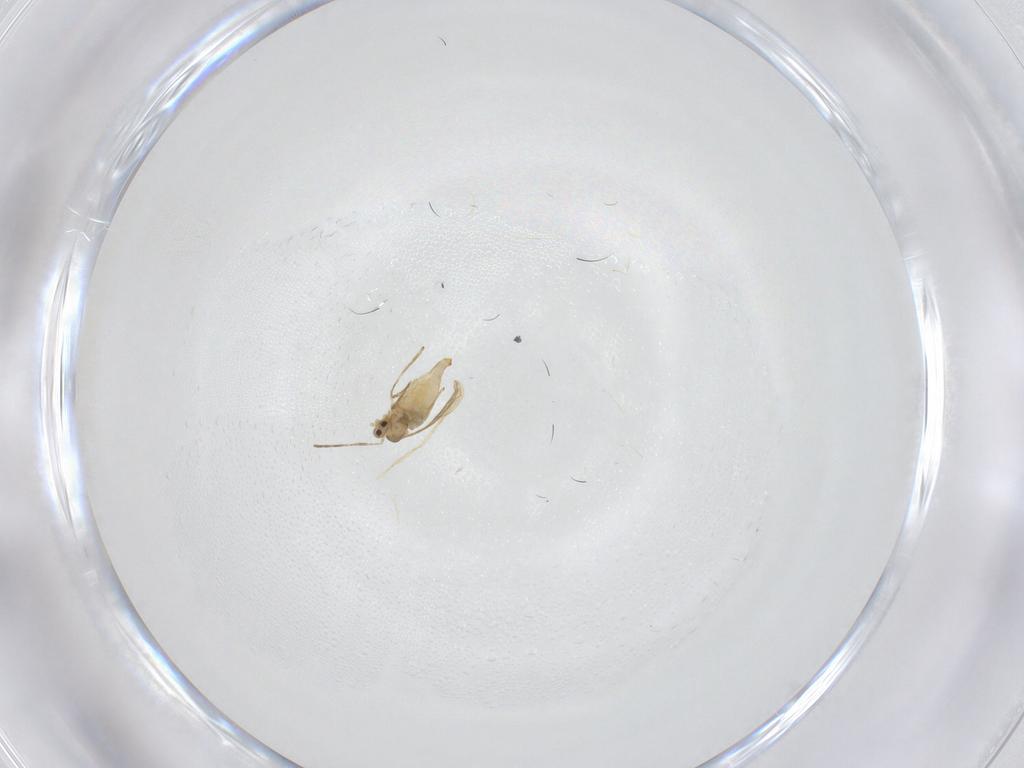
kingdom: Animalia
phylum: Arthropoda
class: Insecta
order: Diptera
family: Cecidomyiidae
